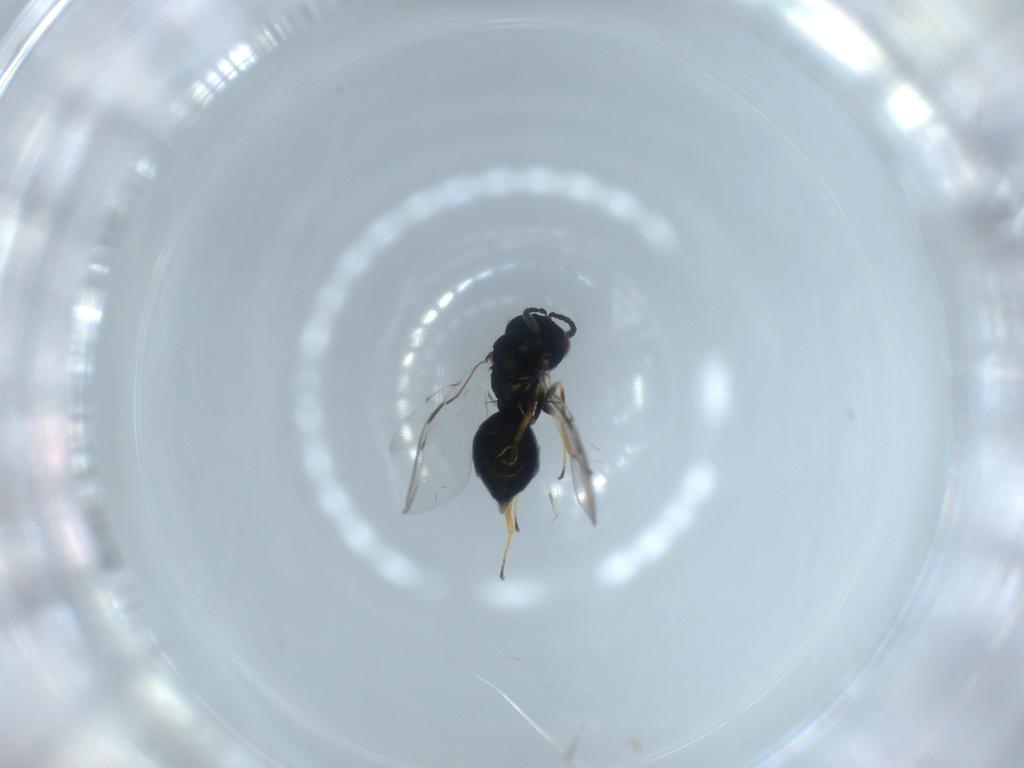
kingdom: Animalia
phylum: Arthropoda
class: Insecta
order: Hymenoptera
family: Pteromalidae
